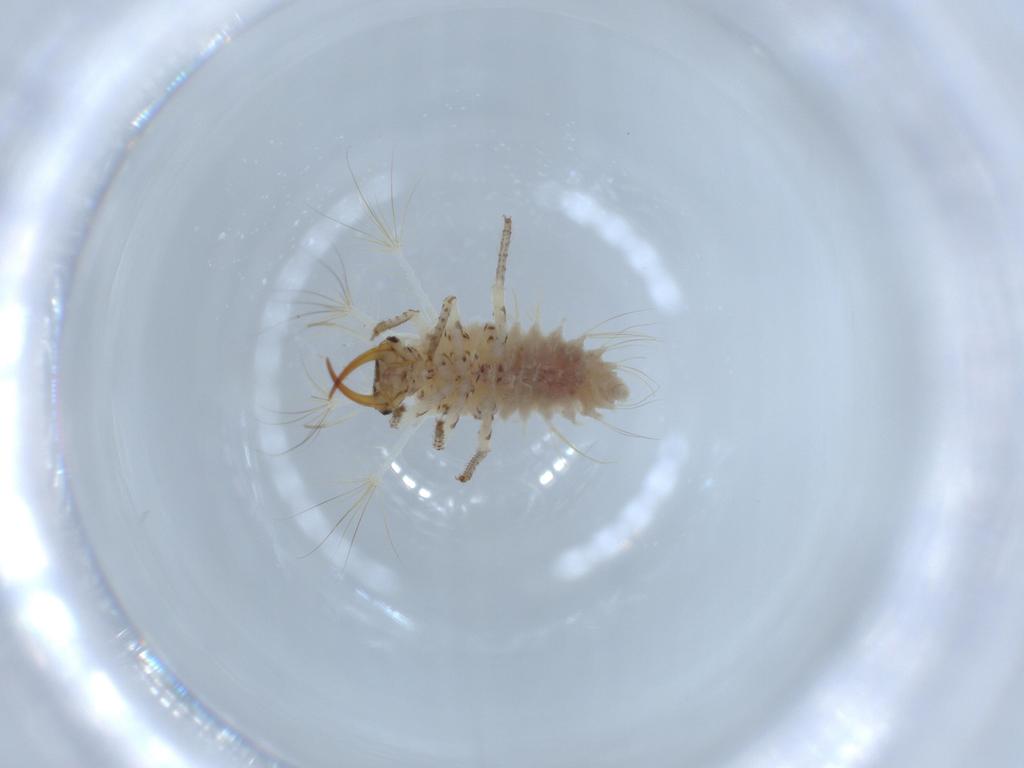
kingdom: Animalia
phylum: Arthropoda
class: Insecta
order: Neuroptera
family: Chrysopidae
